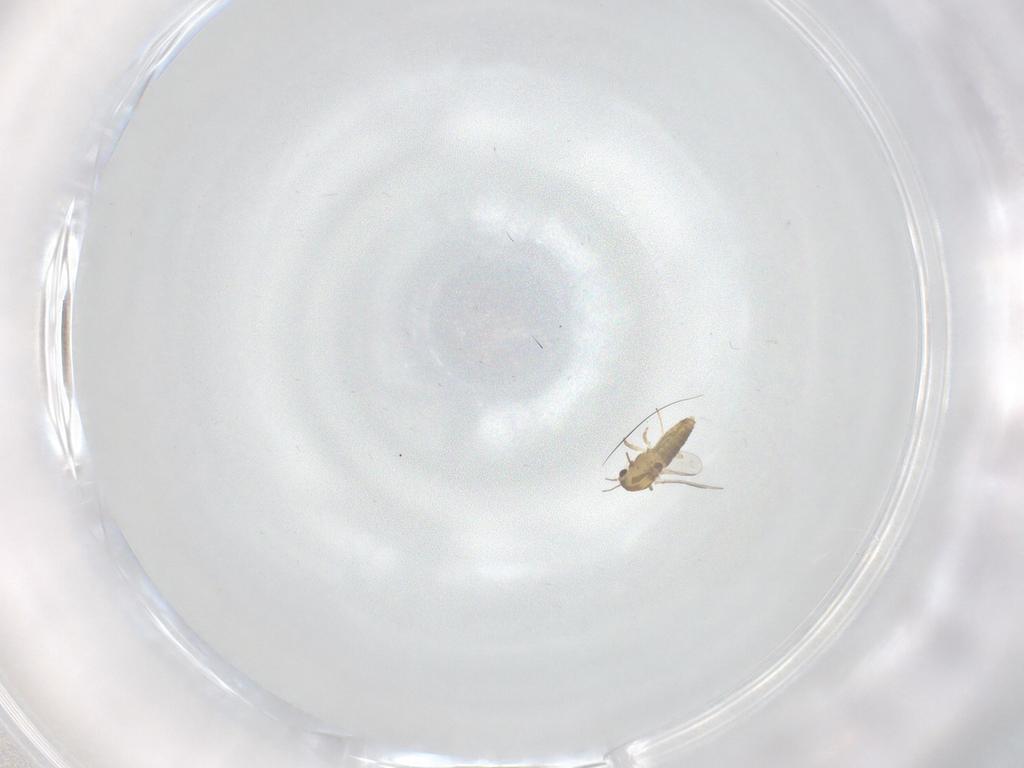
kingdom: Animalia
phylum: Arthropoda
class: Insecta
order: Diptera
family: Chironomidae
